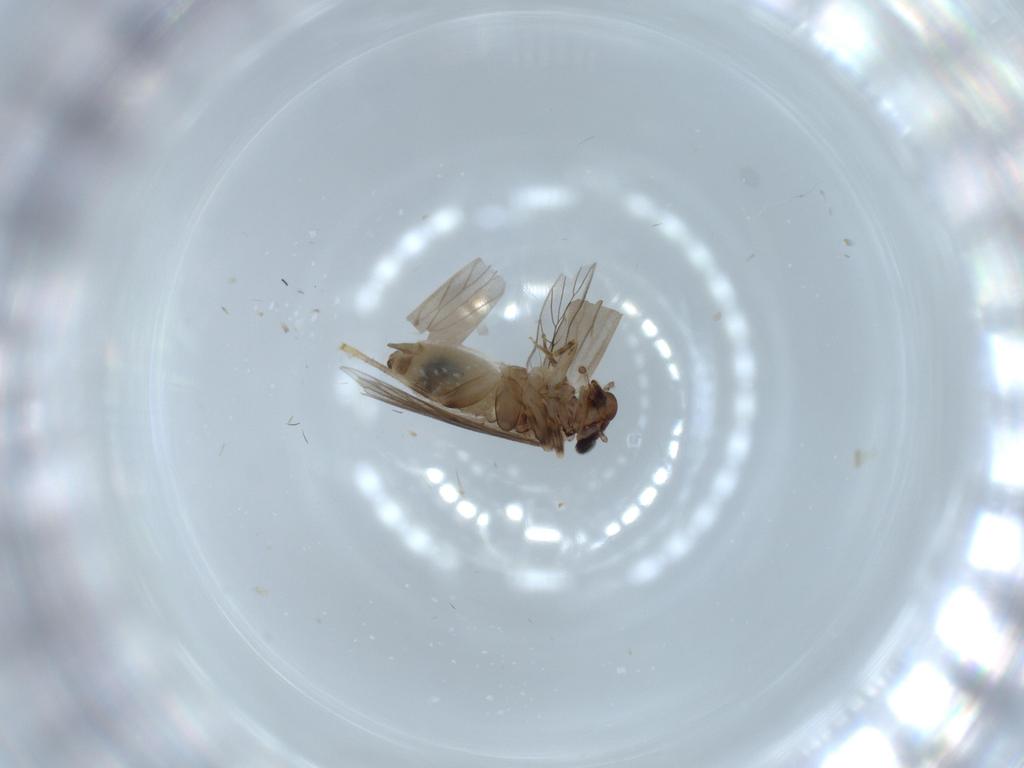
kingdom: Animalia
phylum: Arthropoda
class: Insecta
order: Psocodea
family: Lepidopsocidae
